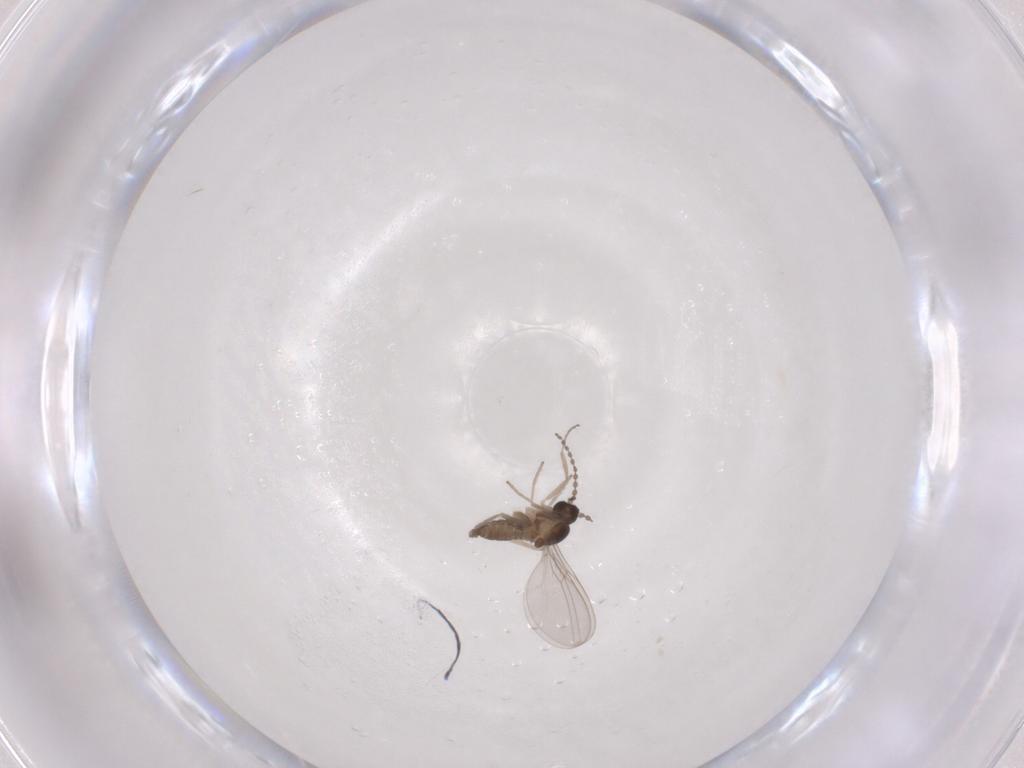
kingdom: Animalia
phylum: Arthropoda
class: Insecta
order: Diptera
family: Cecidomyiidae
